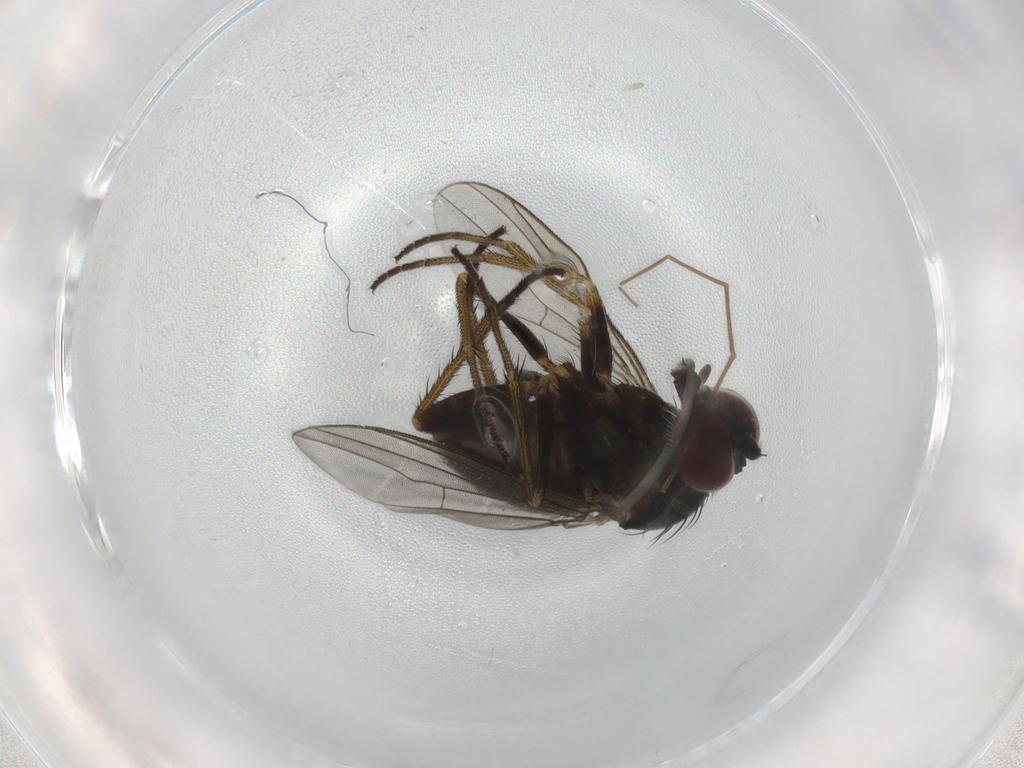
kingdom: Animalia
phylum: Arthropoda
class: Insecta
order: Diptera
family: Dolichopodidae
